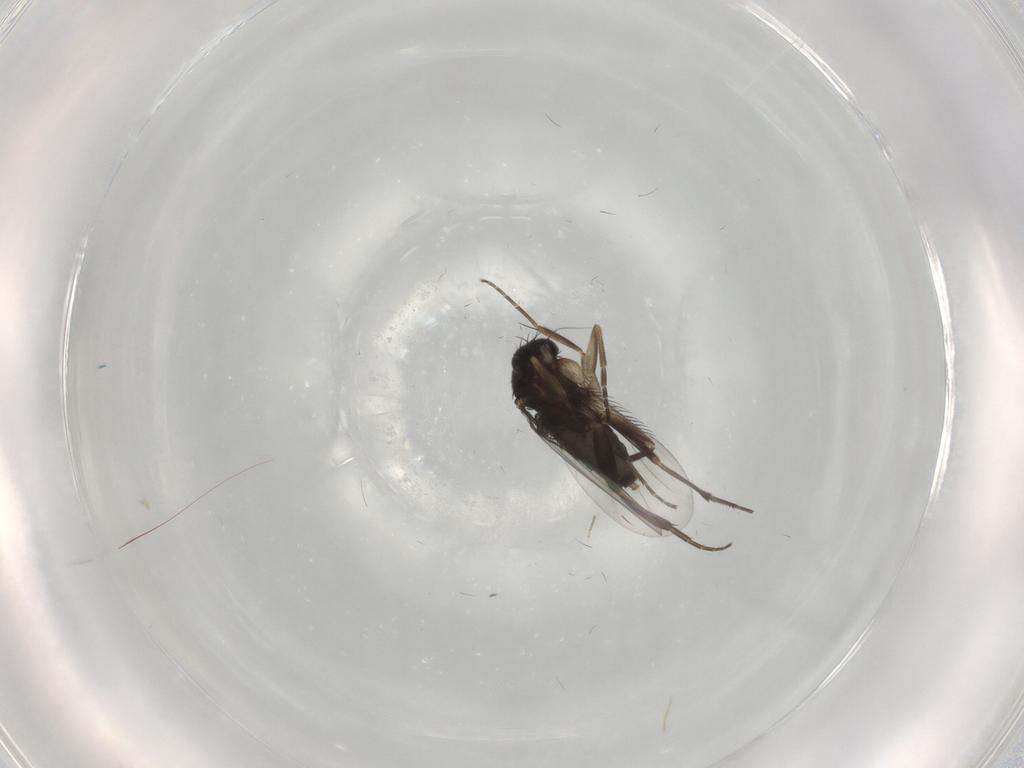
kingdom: Animalia
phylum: Arthropoda
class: Insecta
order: Diptera
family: Phoridae
